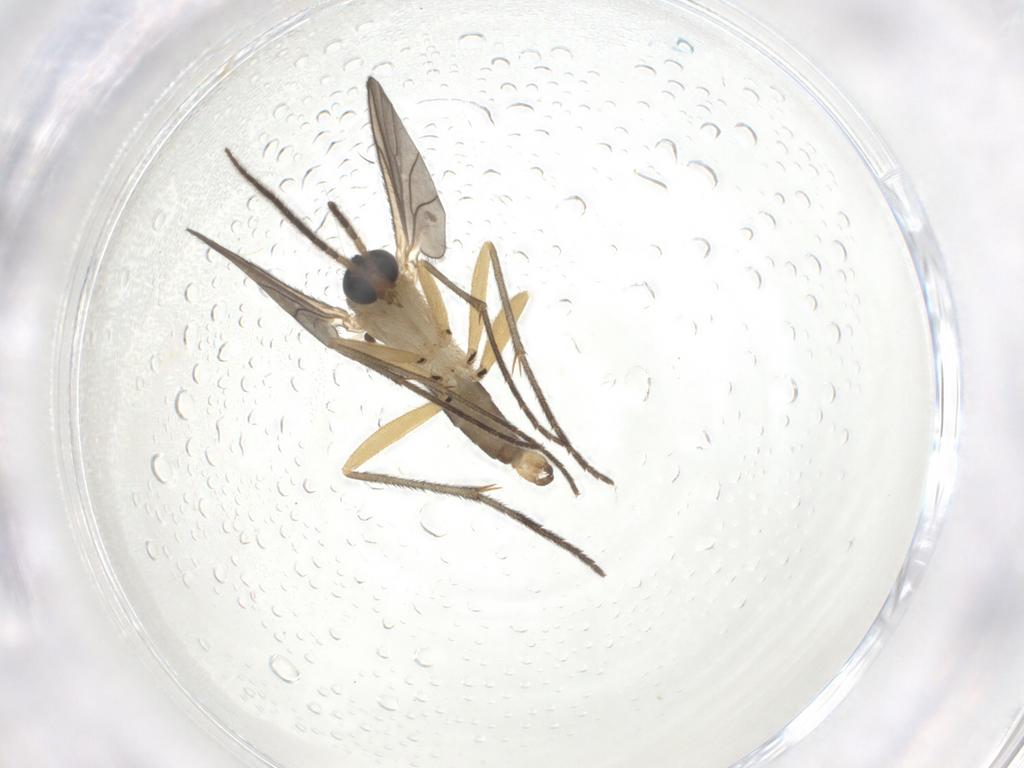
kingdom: Animalia
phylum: Arthropoda
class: Insecta
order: Diptera
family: Sciaridae
